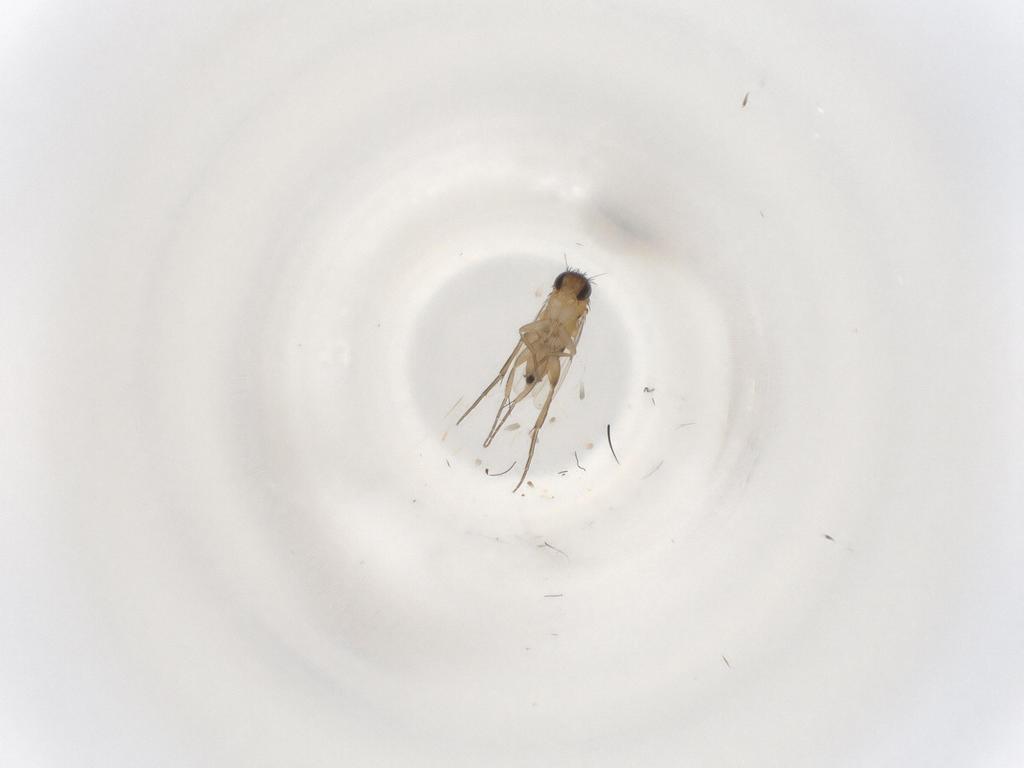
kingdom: Animalia
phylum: Arthropoda
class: Insecta
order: Diptera
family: Phoridae
